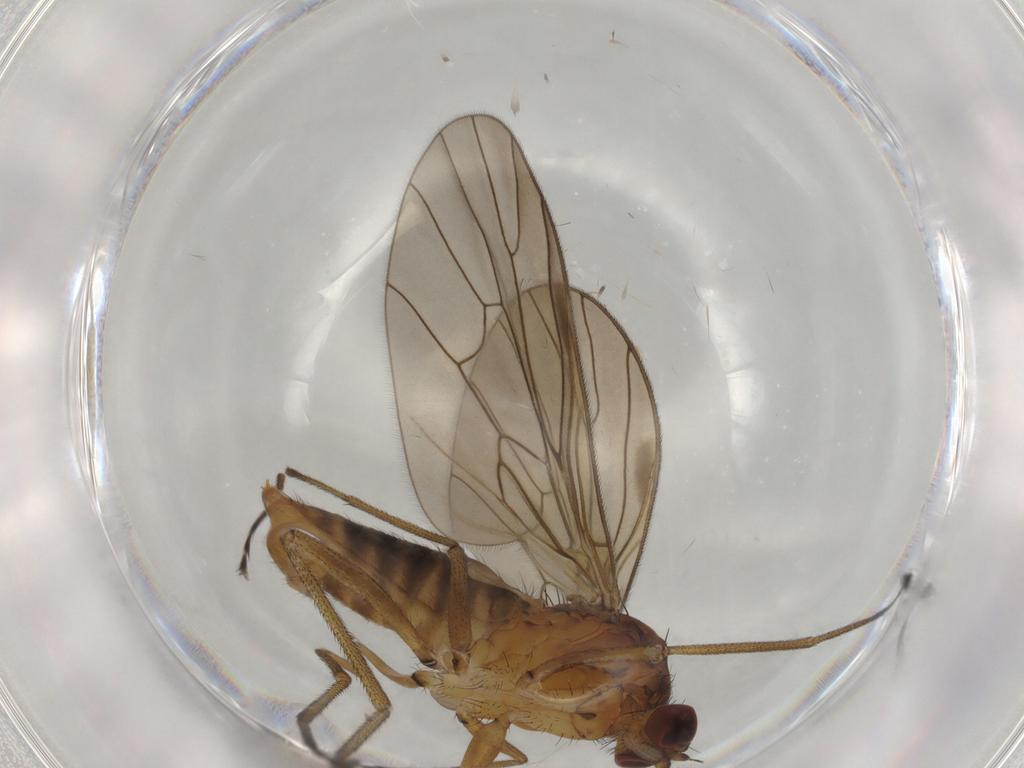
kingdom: Animalia
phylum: Arthropoda
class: Insecta
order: Diptera
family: Brachystomatidae
